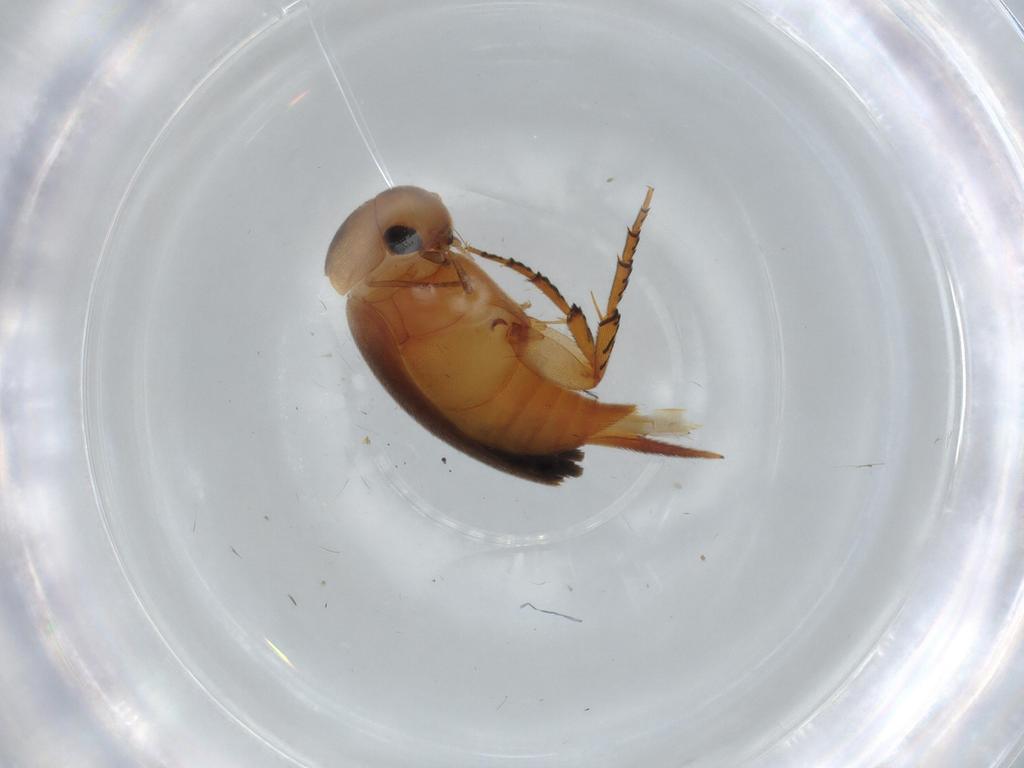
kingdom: Animalia
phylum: Arthropoda
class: Insecta
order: Coleoptera
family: Mordellidae
